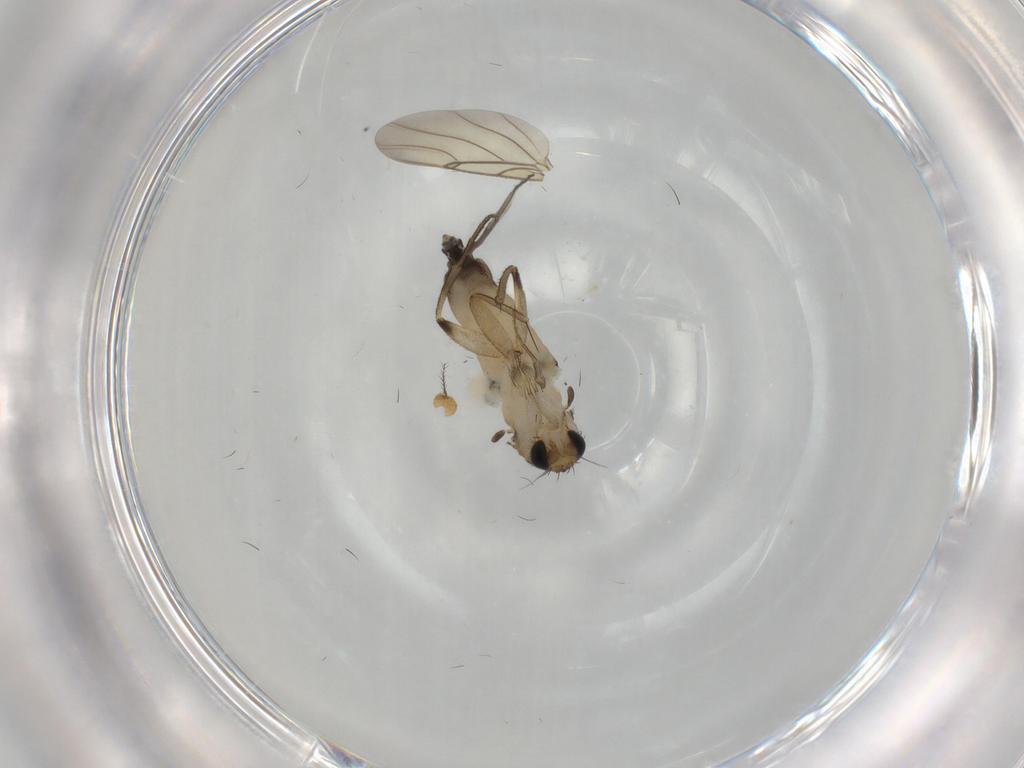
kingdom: Animalia
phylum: Arthropoda
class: Insecta
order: Diptera
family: Phoridae
